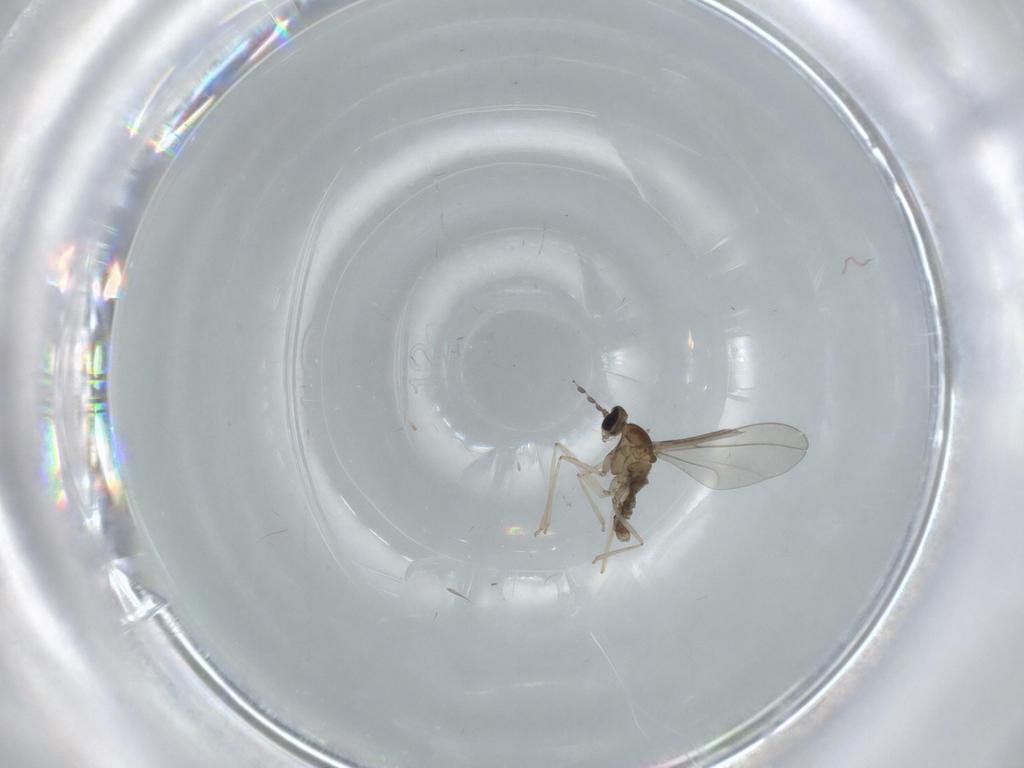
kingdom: Animalia
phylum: Arthropoda
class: Insecta
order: Diptera
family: Cecidomyiidae
